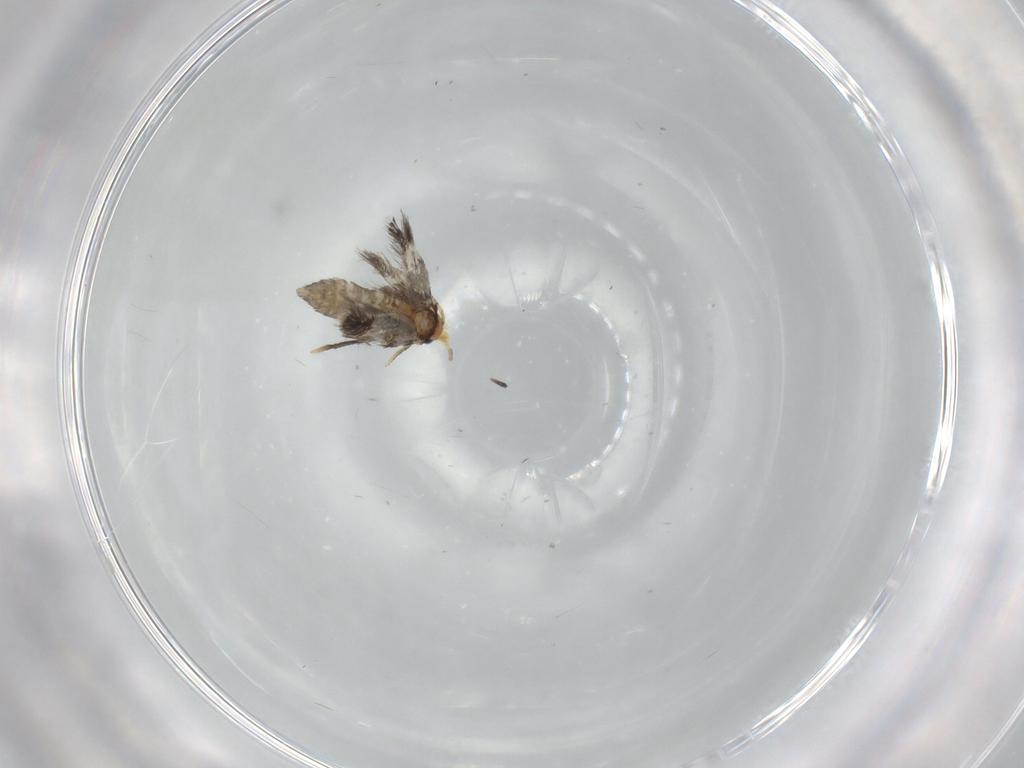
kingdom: Animalia
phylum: Arthropoda
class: Insecta
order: Lepidoptera
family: Nepticulidae
